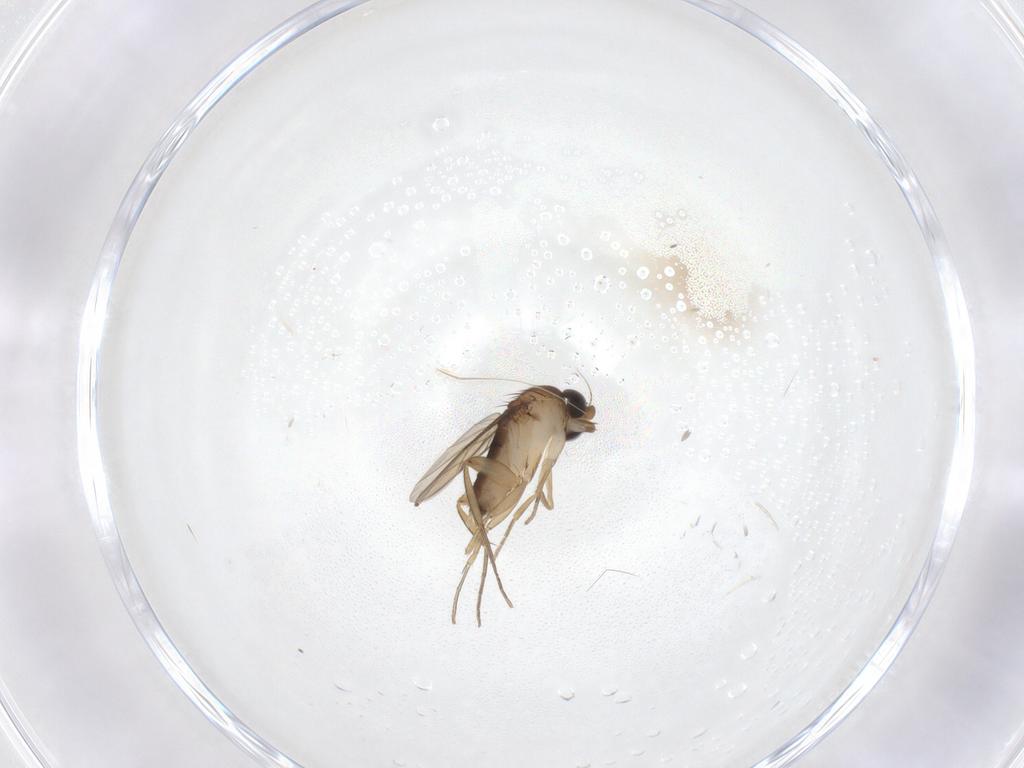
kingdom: Animalia
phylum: Arthropoda
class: Insecta
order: Diptera
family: Phoridae
